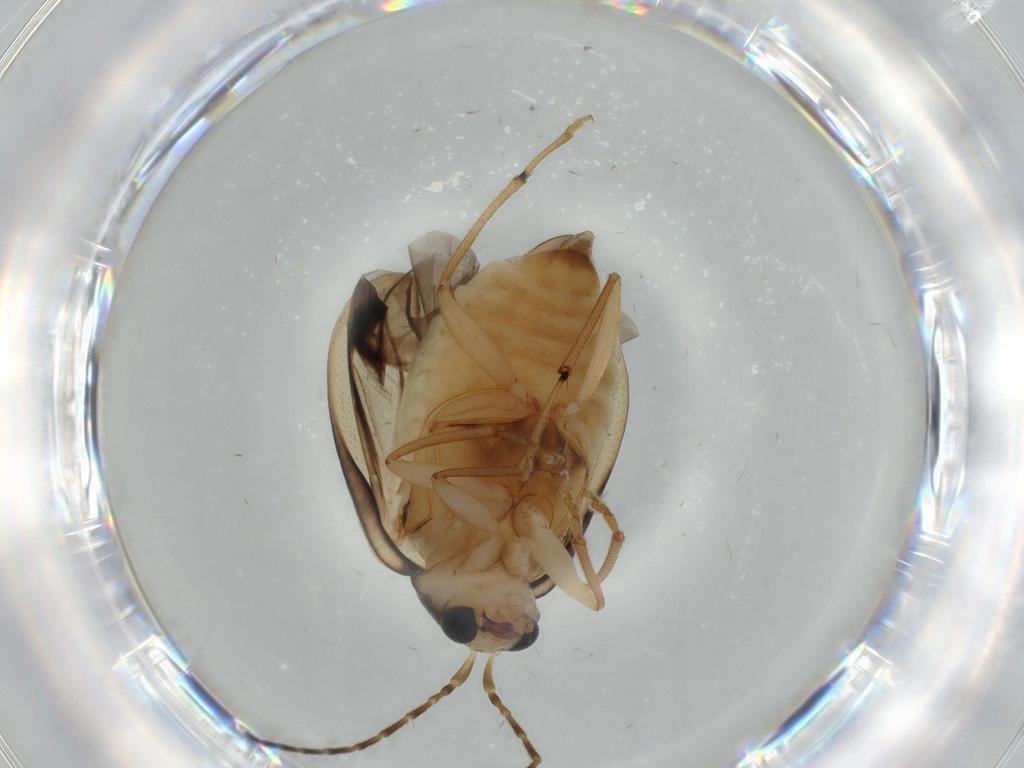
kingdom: Animalia
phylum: Arthropoda
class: Insecta
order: Coleoptera
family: Chrysomelidae
